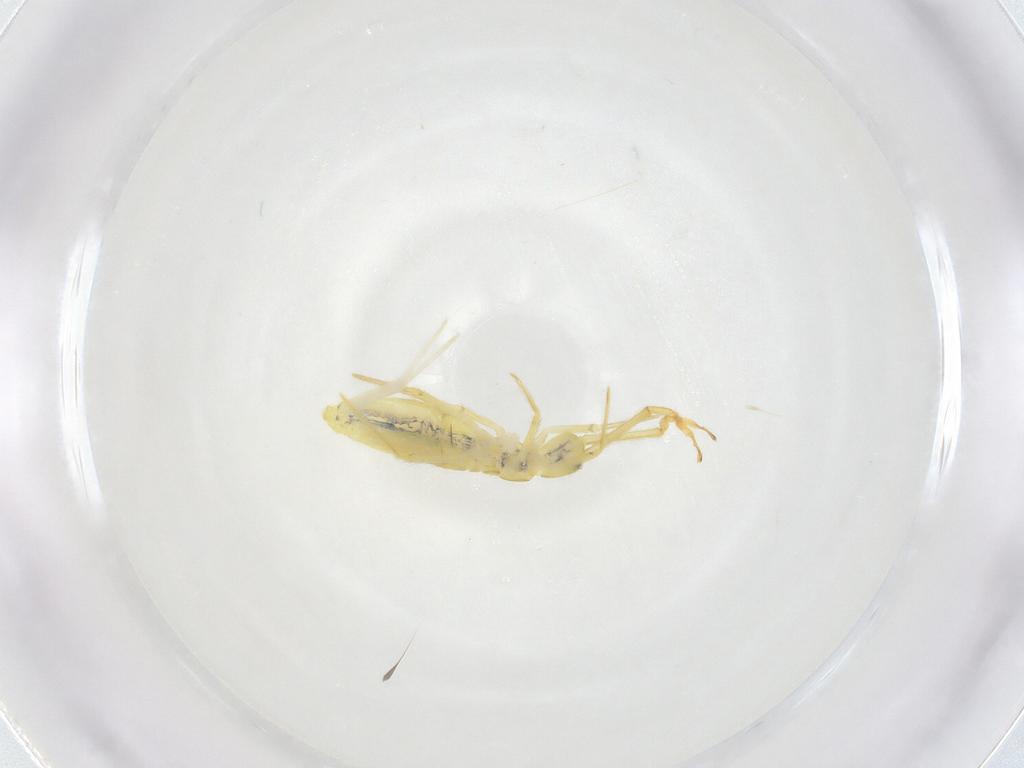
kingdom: Animalia
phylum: Arthropoda
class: Collembola
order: Entomobryomorpha
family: Paronellidae
